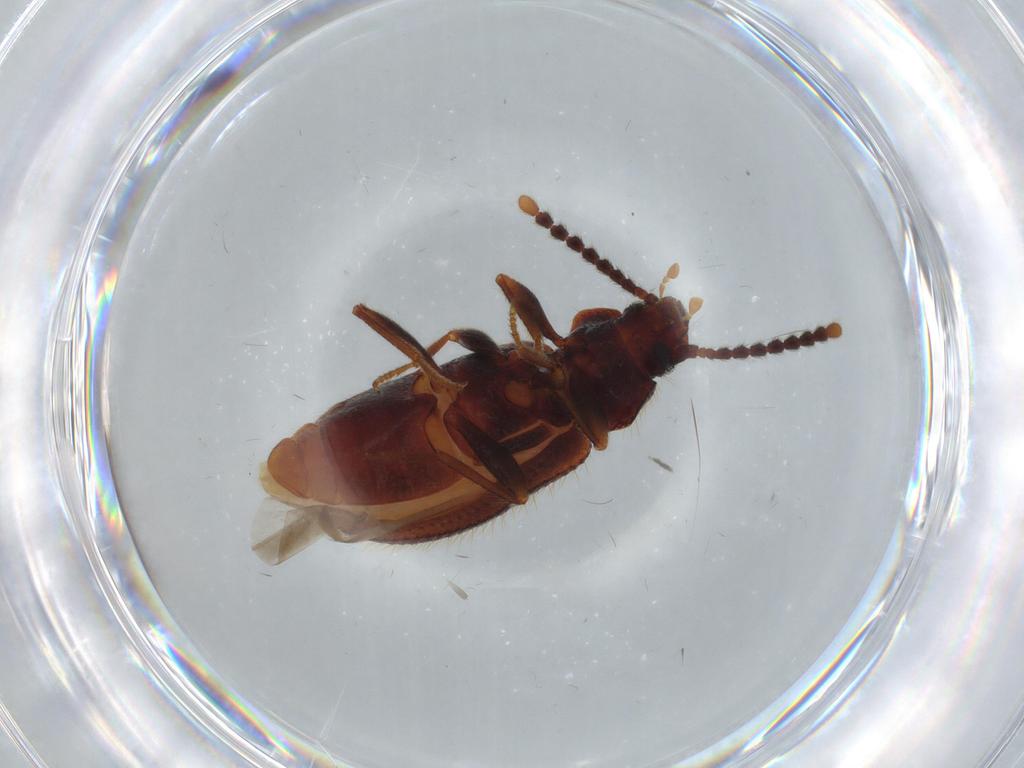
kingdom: Animalia
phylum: Arthropoda
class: Insecta
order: Coleoptera
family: Tenebrionidae
